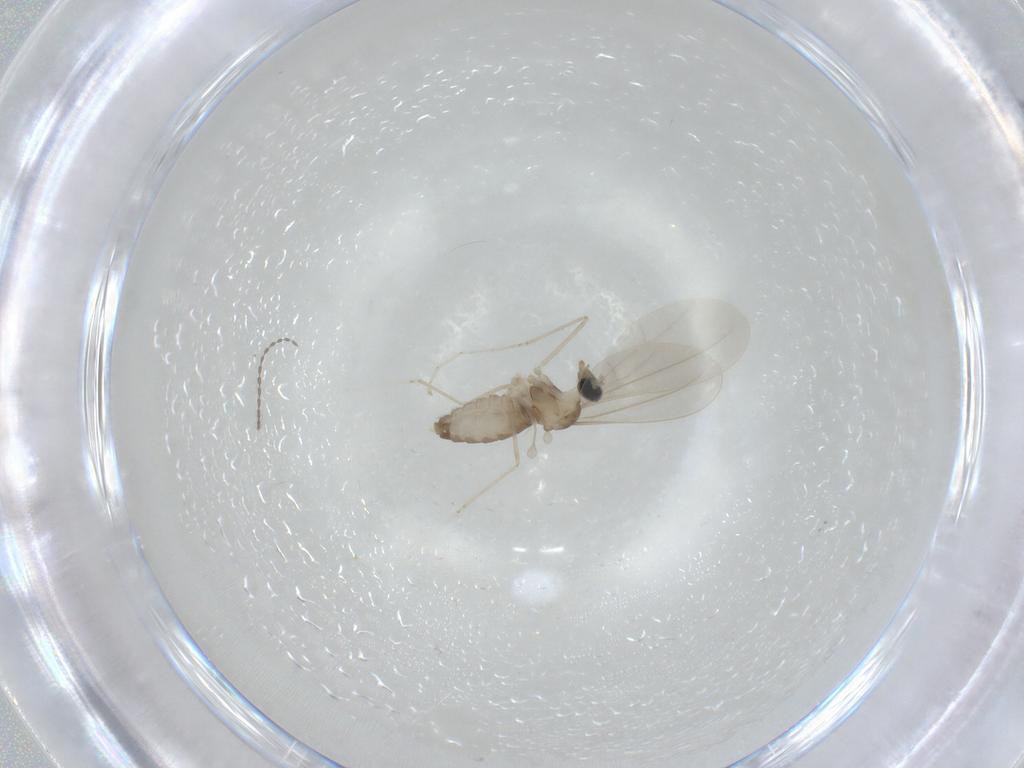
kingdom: Animalia
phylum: Arthropoda
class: Insecta
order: Diptera
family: Cecidomyiidae
